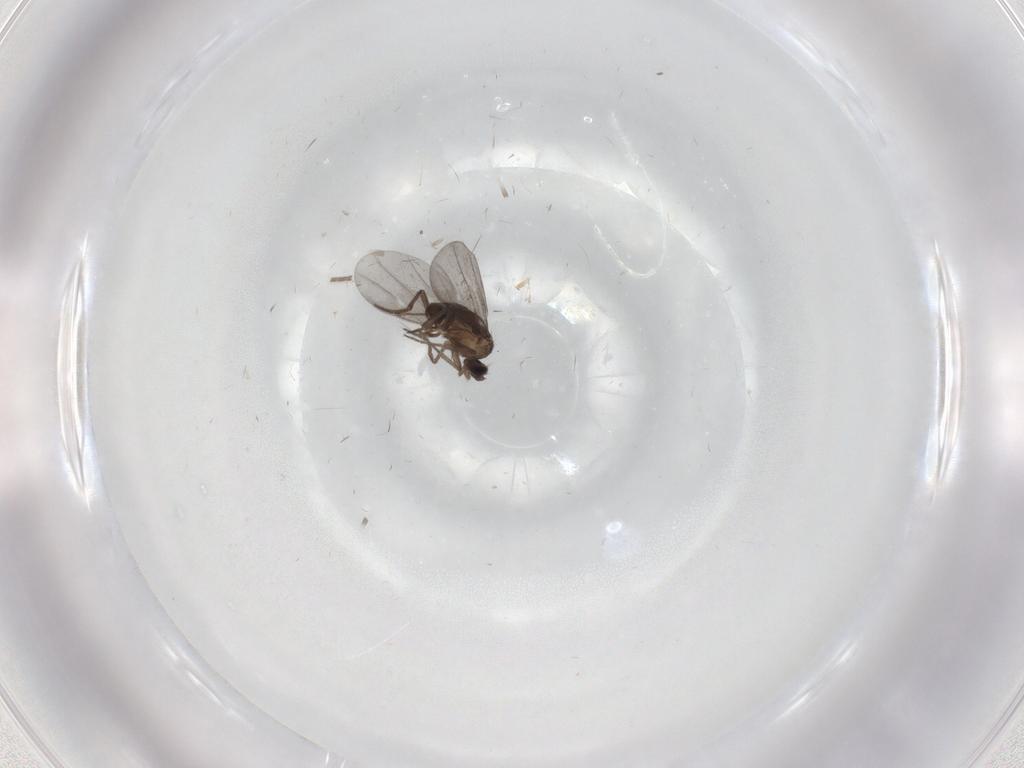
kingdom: Animalia
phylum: Arthropoda
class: Insecta
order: Diptera
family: Cecidomyiidae
